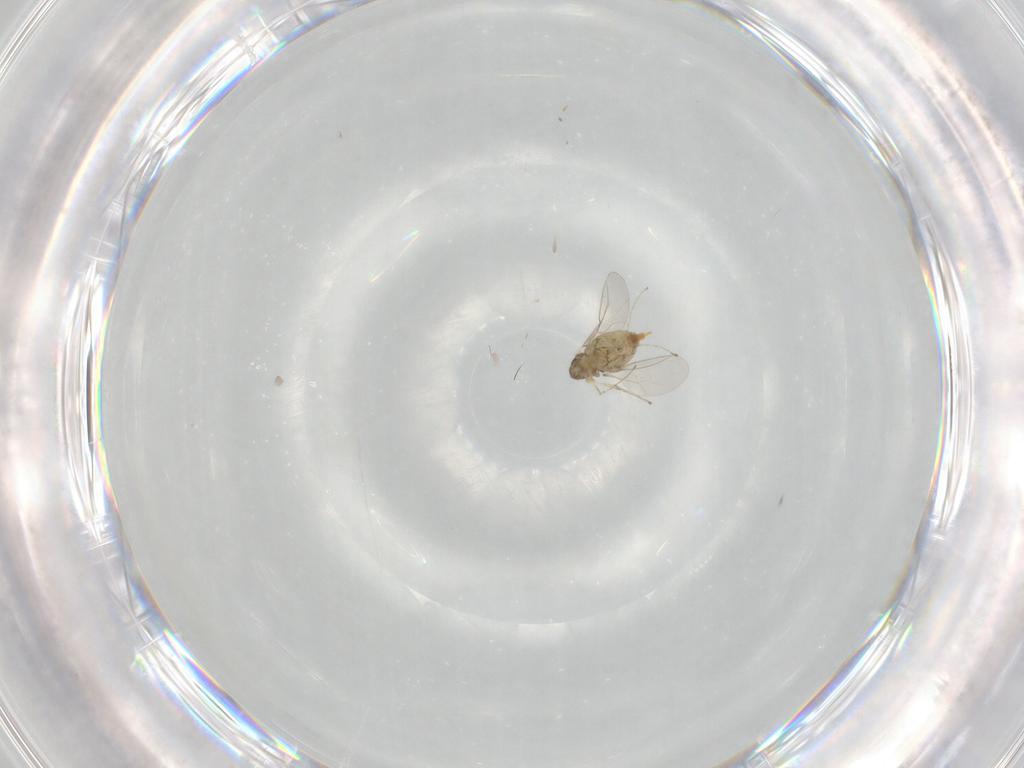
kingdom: Animalia
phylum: Arthropoda
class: Insecta
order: Diptera
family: Cecidomyiidae
